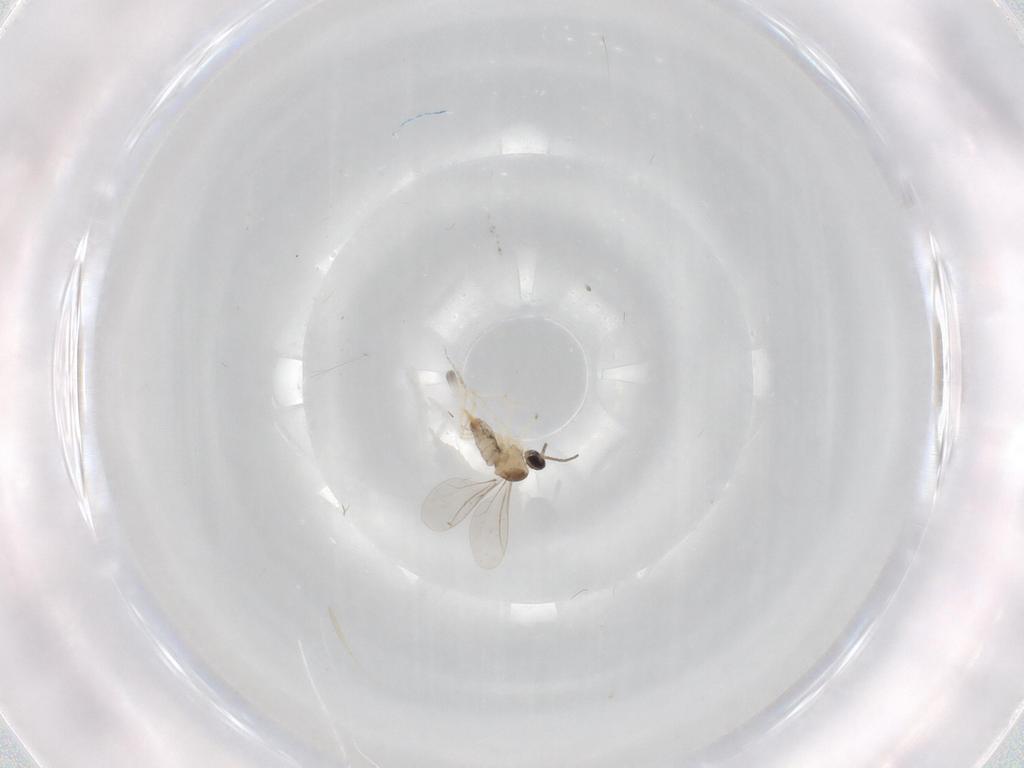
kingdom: Animalia
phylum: Arthropoda
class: Insecta
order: Diptera
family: Cecidomyiidae
